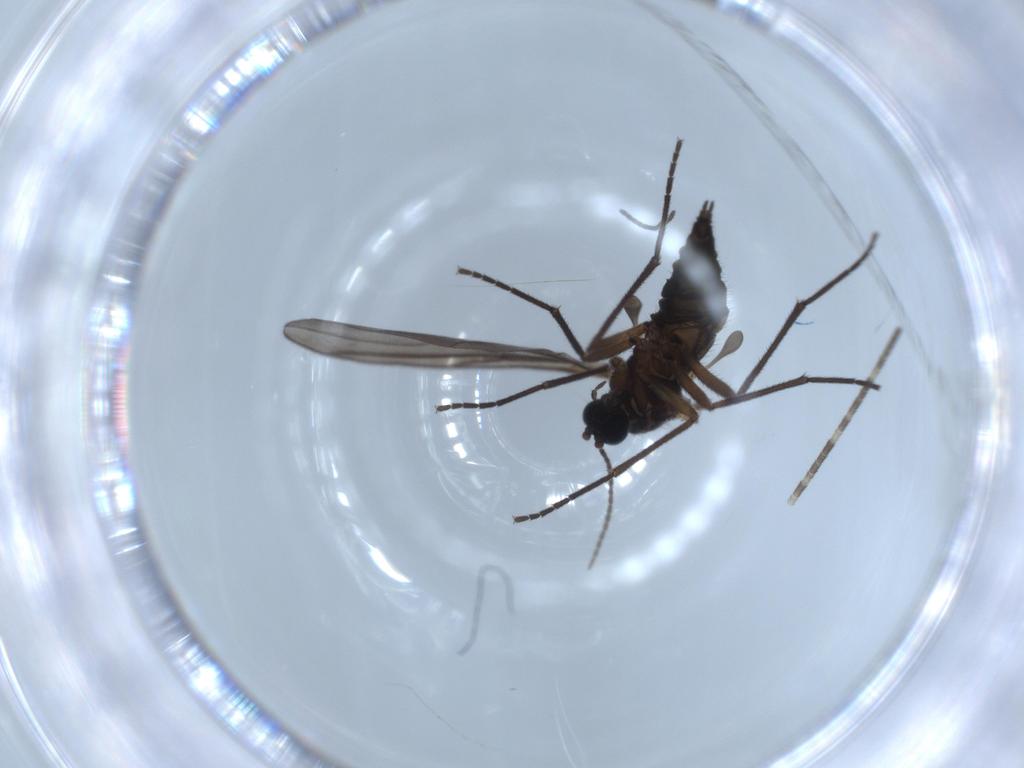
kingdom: Animalia
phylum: Arthropoda
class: Insecta
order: Diptera
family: Cecidomyiidae
